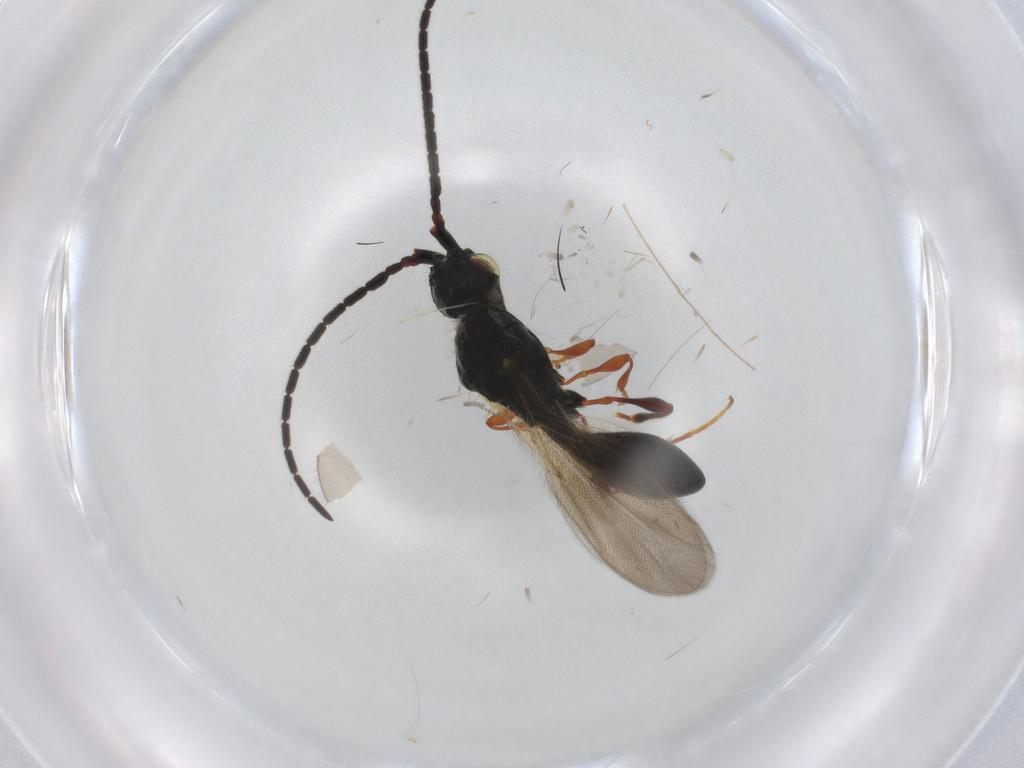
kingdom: Animalia
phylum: Arthropoda
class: Insecta
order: Hymenoptera
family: Diapriidae
